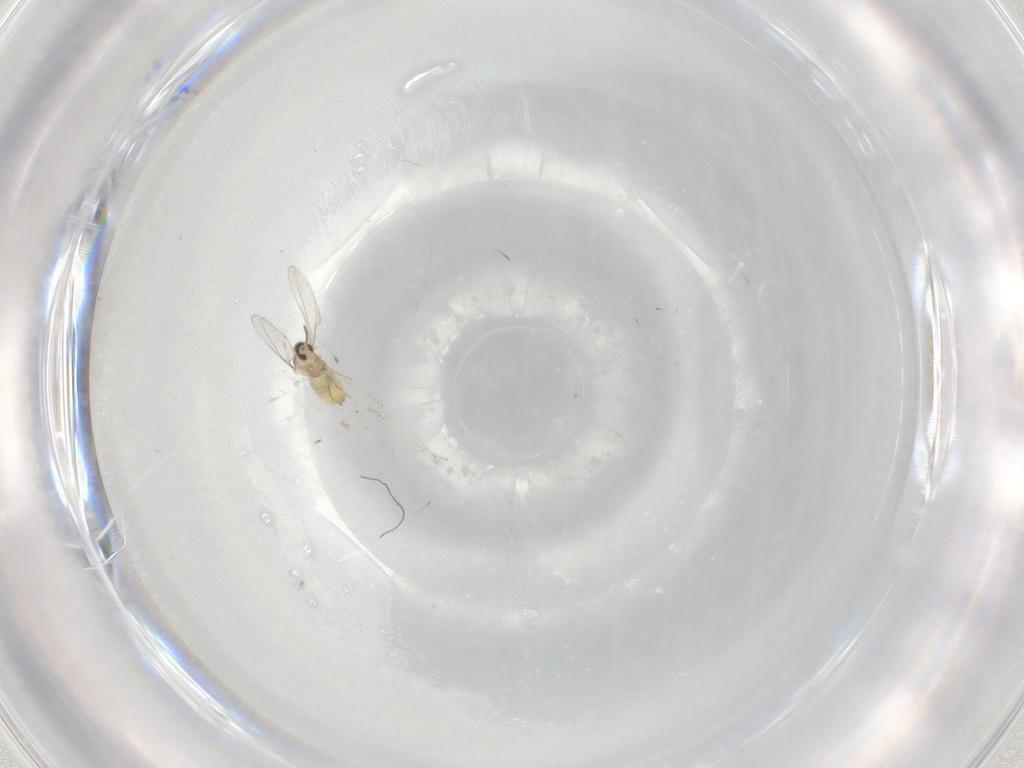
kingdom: Animalia
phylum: Arthropoda
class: Insecta
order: Diptera
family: Cecidomyiidae
